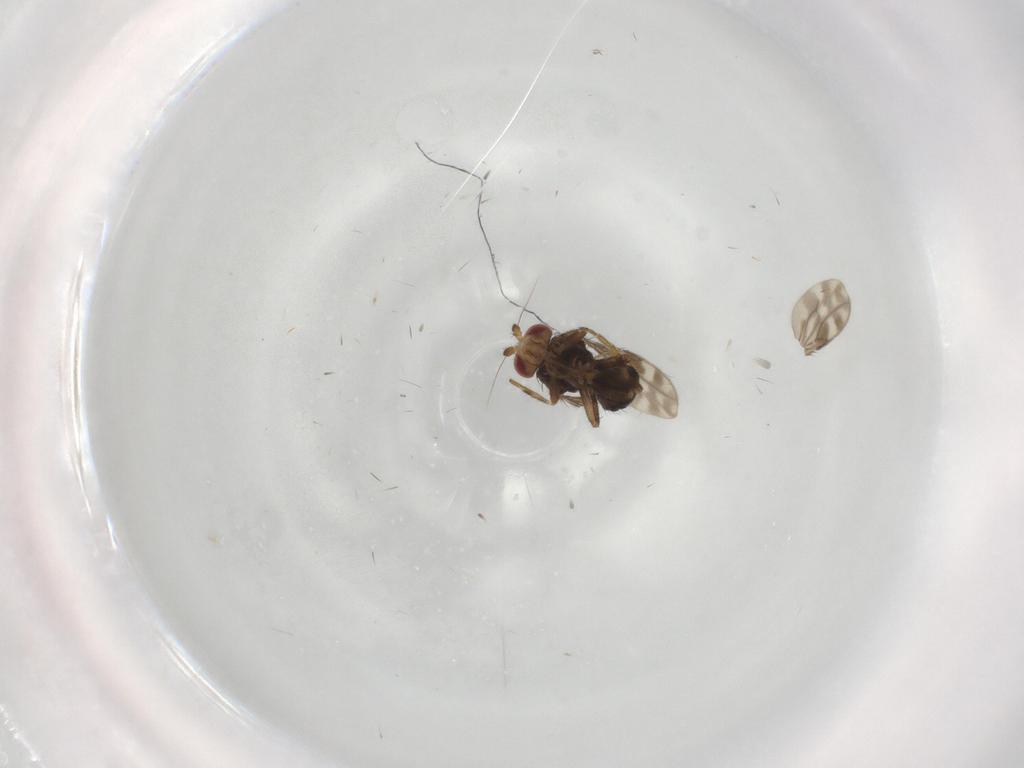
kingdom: Animalia
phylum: Arthropoda
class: Insecta
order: Diptera
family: Sphaeroceridae
